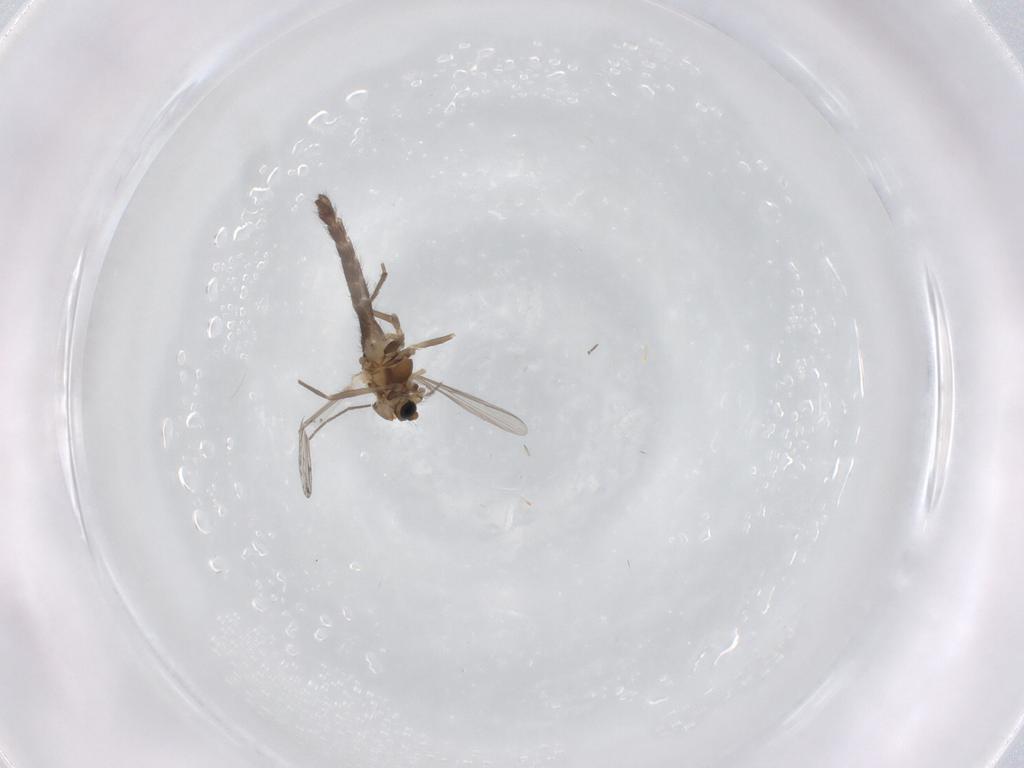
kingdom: Animalia
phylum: Arthropoda
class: Insecta
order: Diptera
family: Chironomidae
